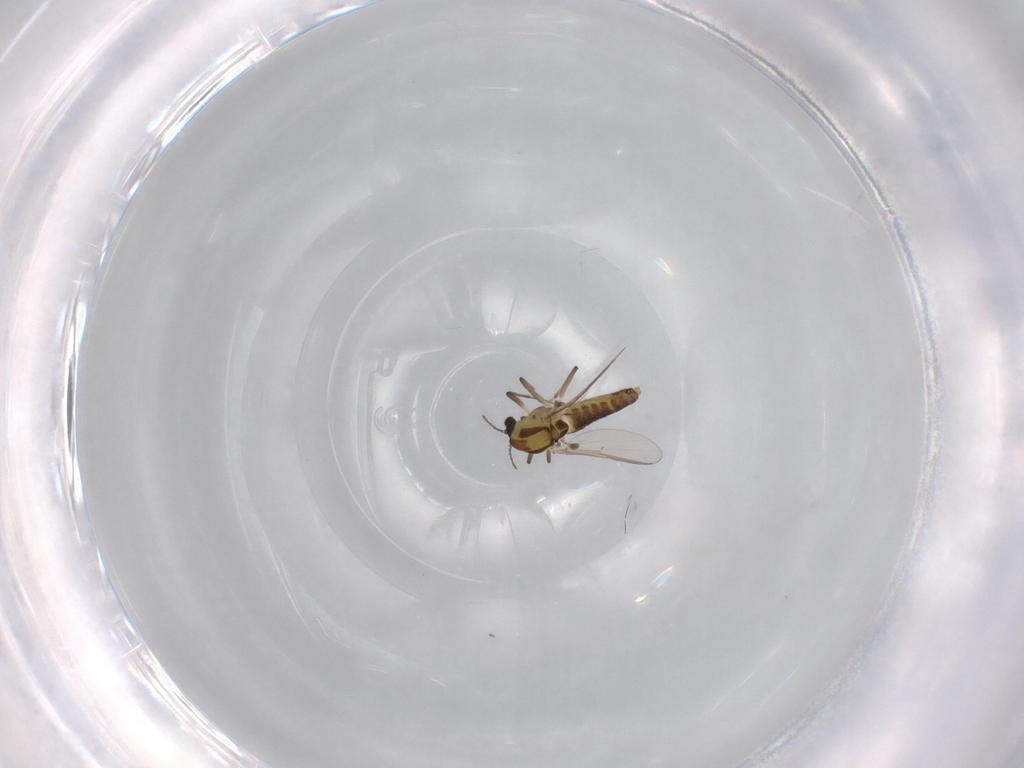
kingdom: Animalia
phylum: Arthropoda
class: Insecta
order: Diptera
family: Chironomidae
